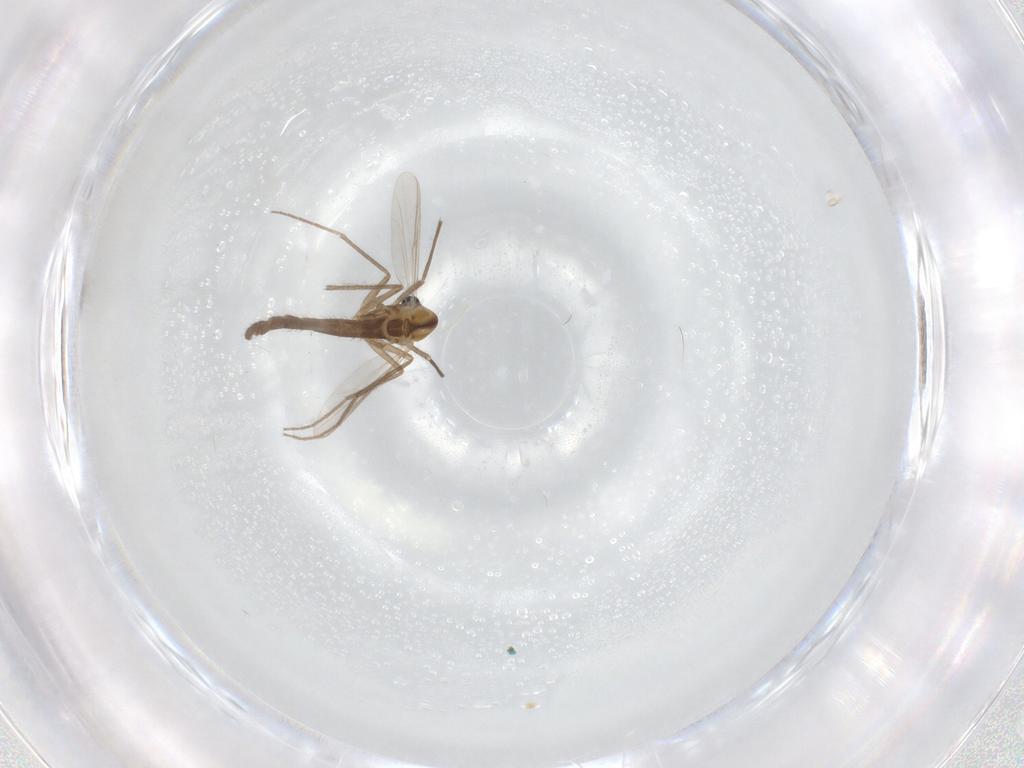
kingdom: Animalia
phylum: Arthropoda
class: Insecta
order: Diptera
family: Chironomidae
